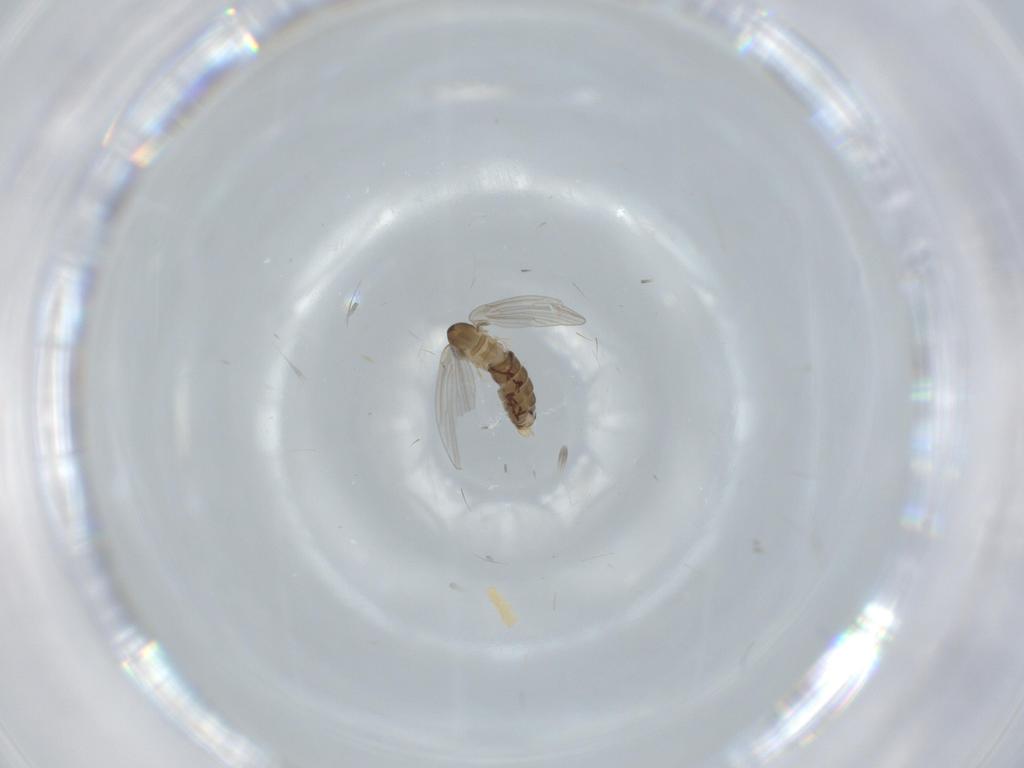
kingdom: Animalia
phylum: Arthropoda
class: Insecta
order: Diptera
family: Psychodidae
